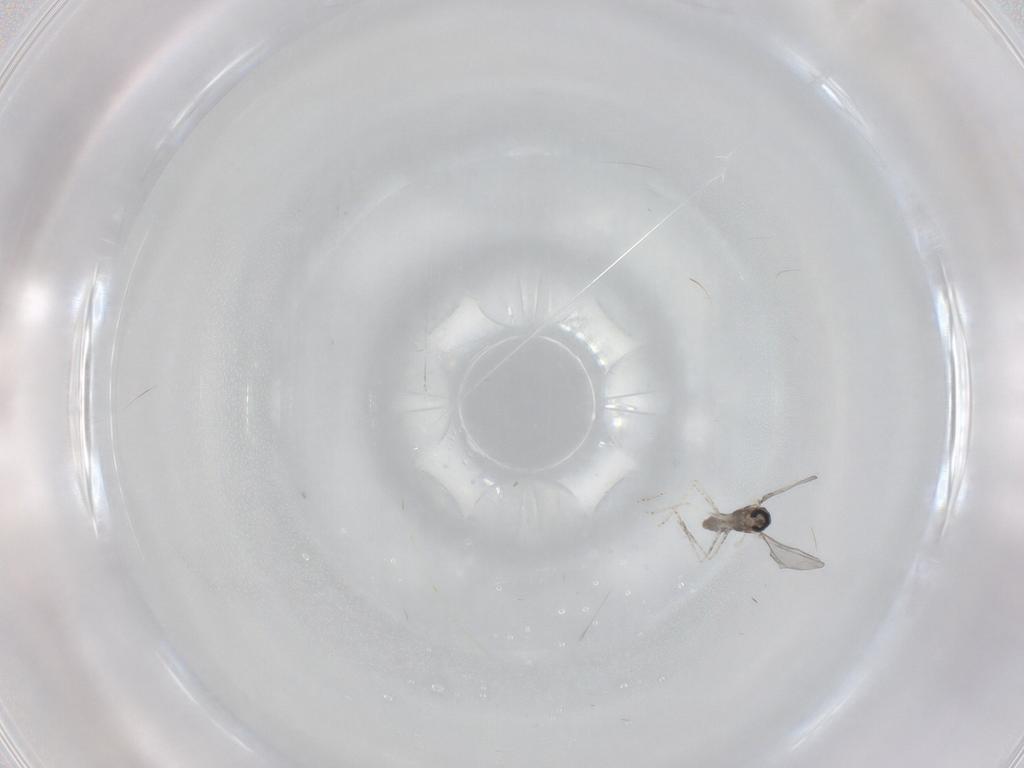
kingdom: Animalia
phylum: Arthropoda
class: Insecta
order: Diptera
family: Cecidomyiidae
